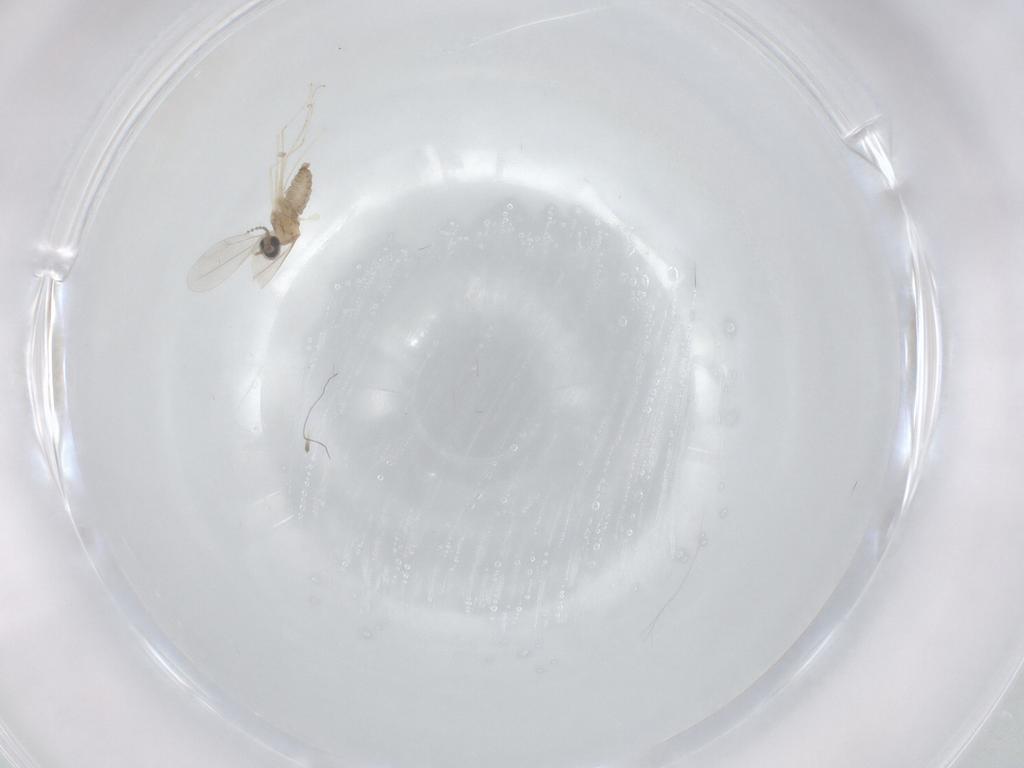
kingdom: Animalia
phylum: Arthropoda
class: Insecta
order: Diptera
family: Cecidomyiidae
